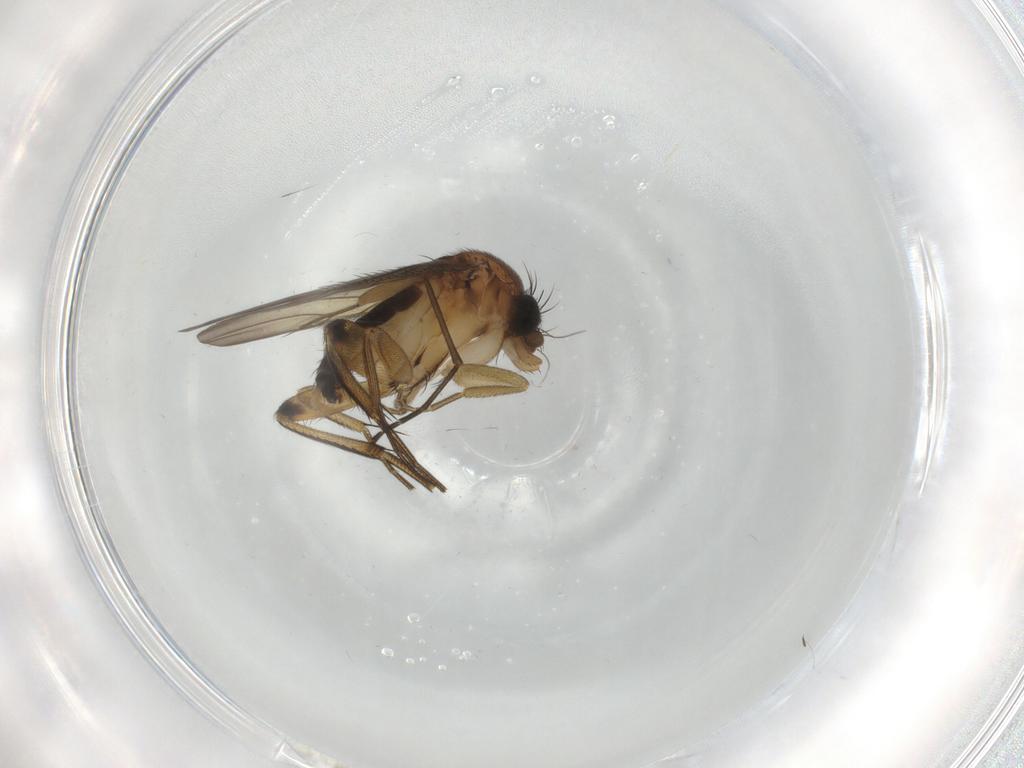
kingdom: Animalia
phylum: Arthropoda
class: Insecta
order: Diptera
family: Phoridae
